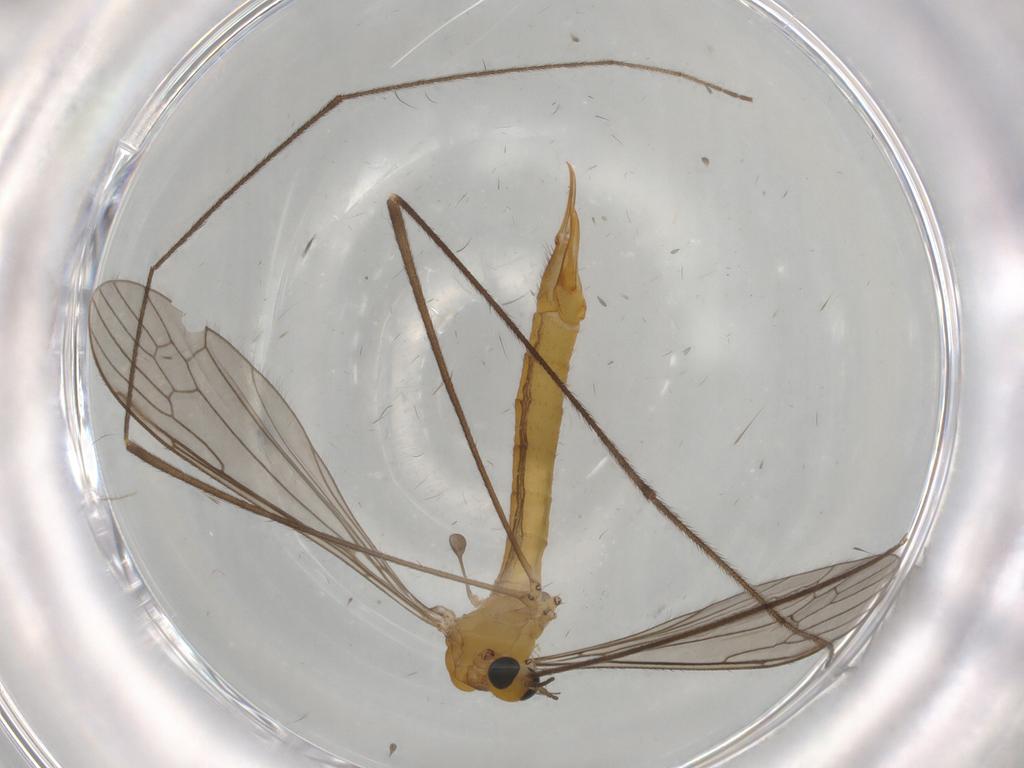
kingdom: Animalia
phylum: Arthropoda
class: Insecta
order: Diptera
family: Limoniidae
